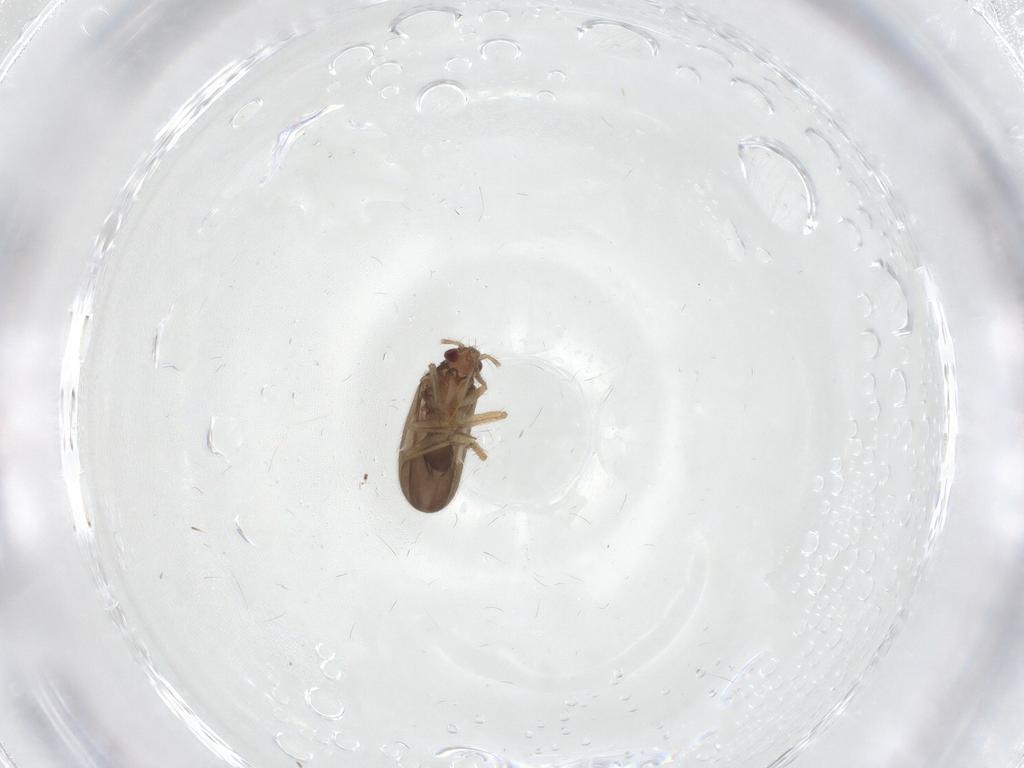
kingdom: Animalia
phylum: Arthropoda
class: Insecta
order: Hemiptera
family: Ceratocombidae
